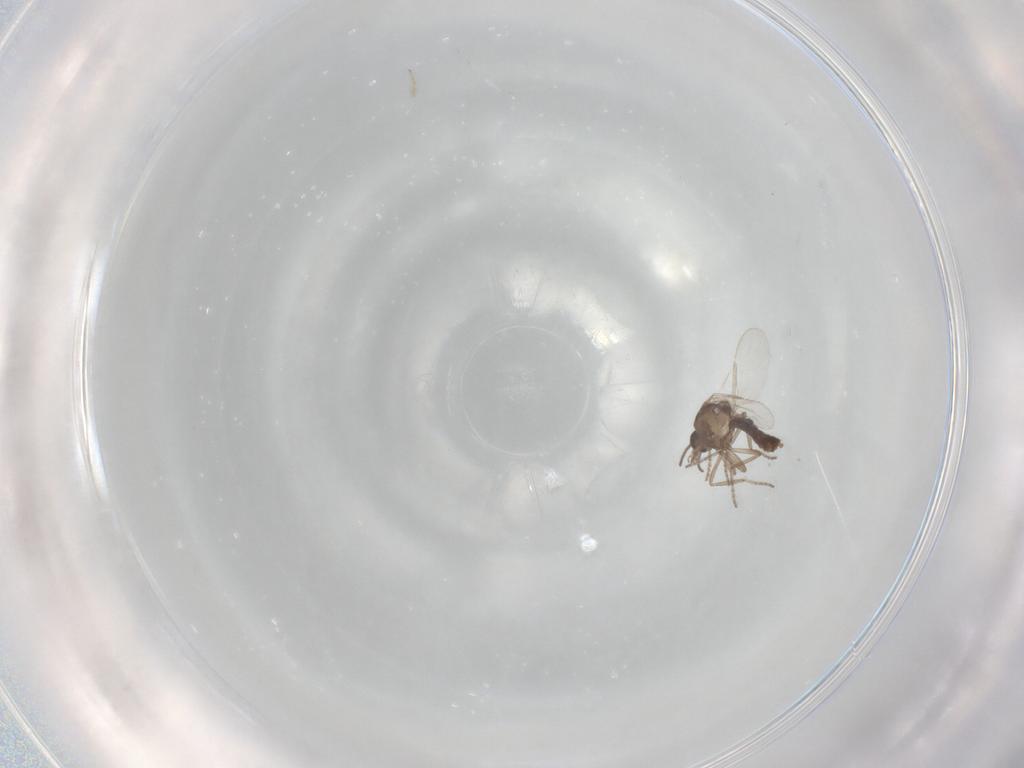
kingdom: Animalia
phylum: Arthropoda
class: Insecta
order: Diptera
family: Ceratopogonidae
